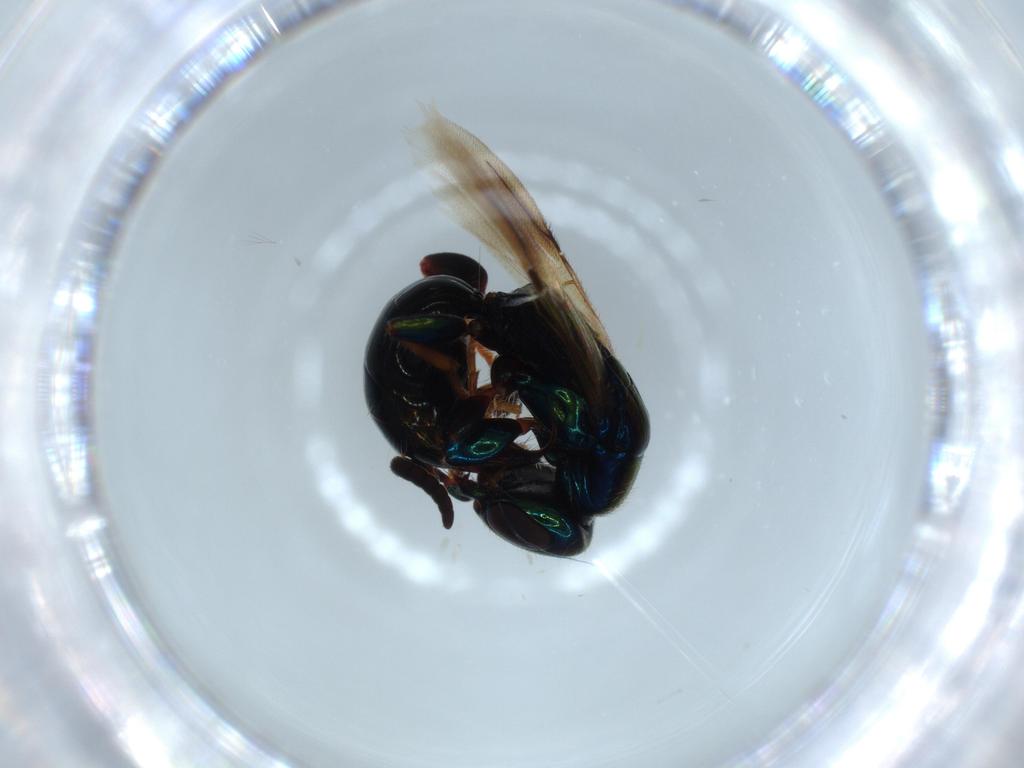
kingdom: Animalia
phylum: Arthropoda
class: Insecta
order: Hymenoptera
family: Bethylidae
